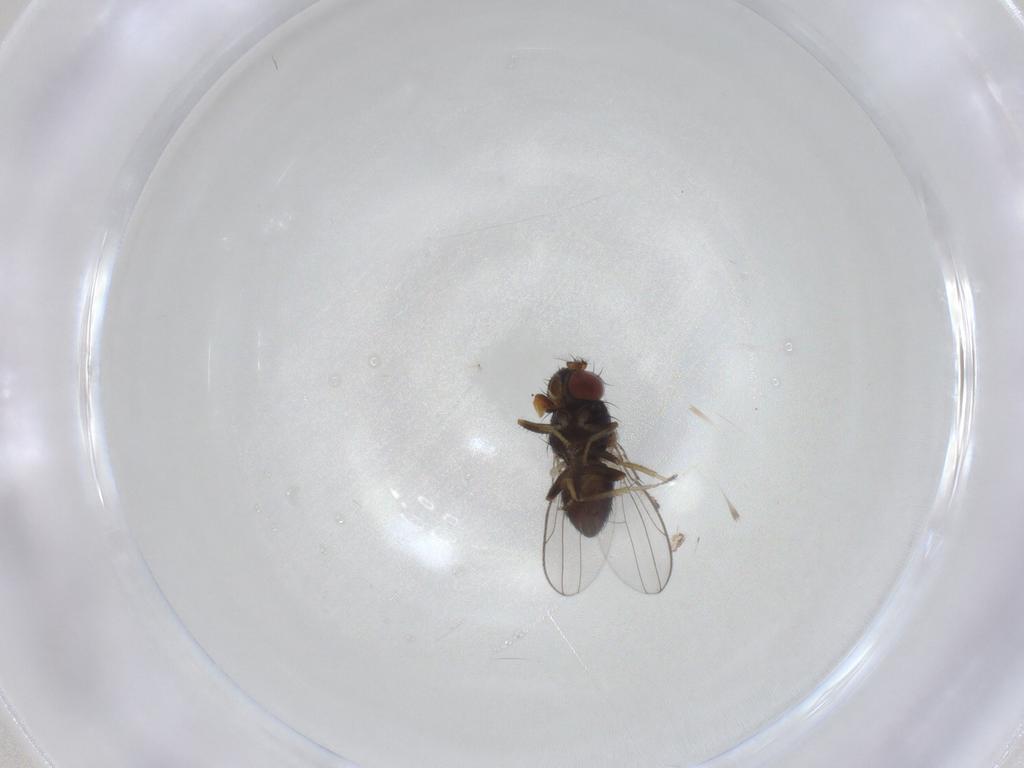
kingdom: Animalia
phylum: Arthropoda
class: Insecta
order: Diptera
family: Ephydridae
